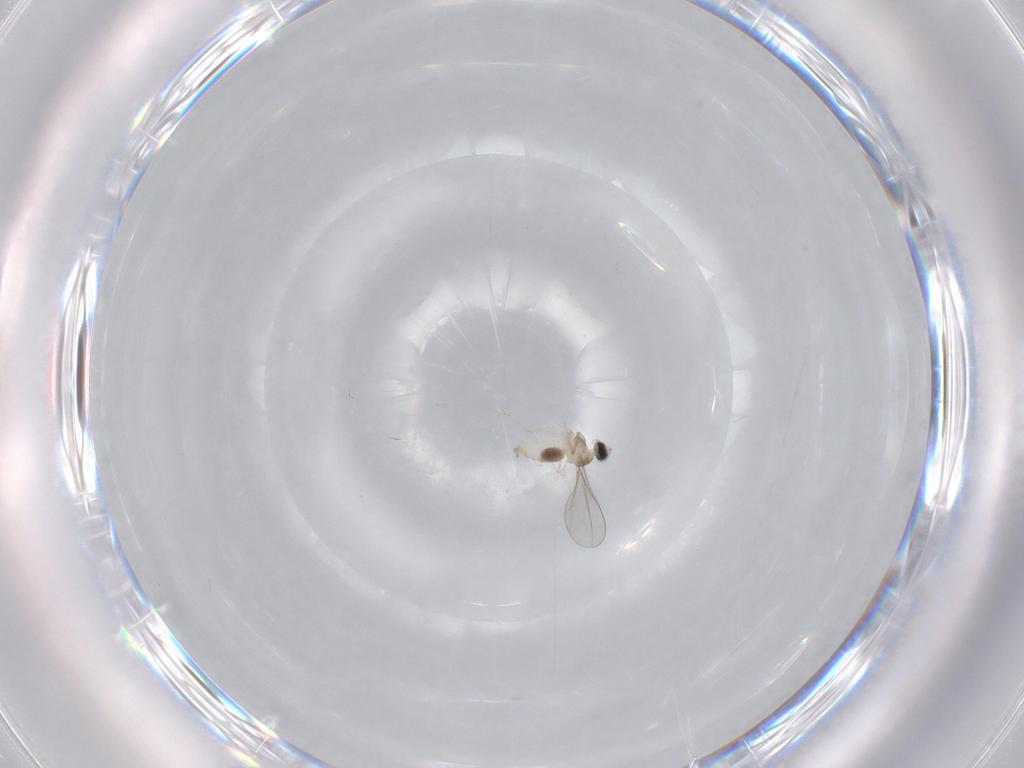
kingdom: Animalia
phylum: Arthropoda
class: Insecta
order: Diptera
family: Cecidomyiidae
